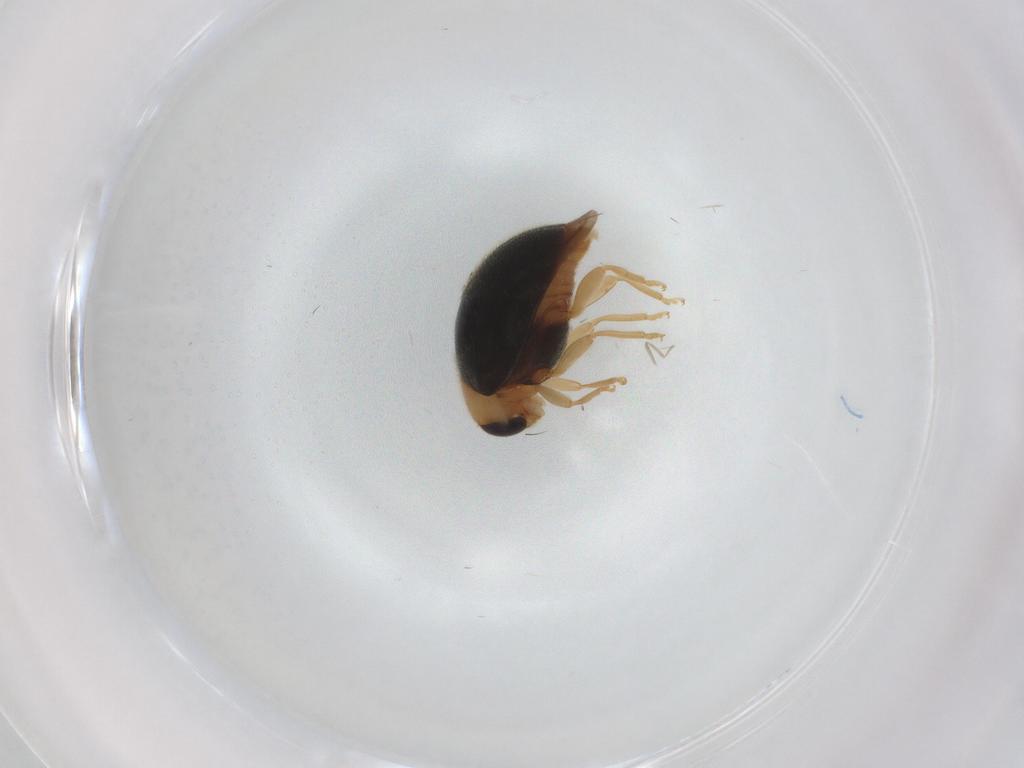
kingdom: Animalia
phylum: Arthropoda
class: Insecta
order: Coleoptera
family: Coccinellidae
